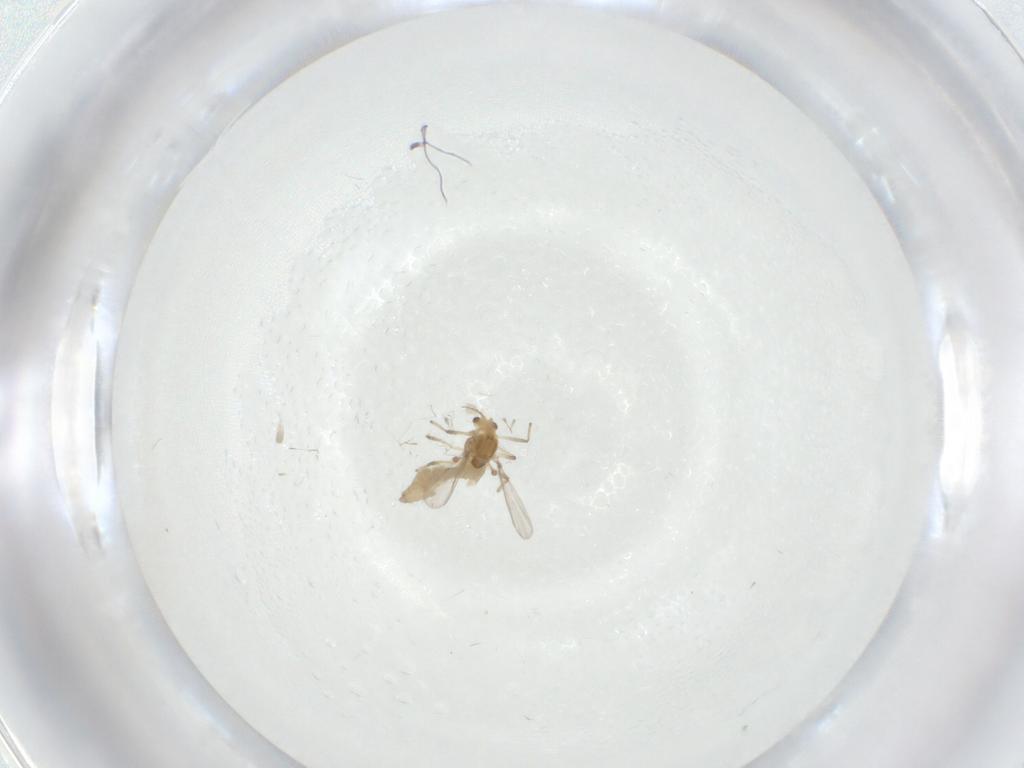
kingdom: Animalia
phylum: Arthropoda
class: Insecta
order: Diptera
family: Chironomidae
